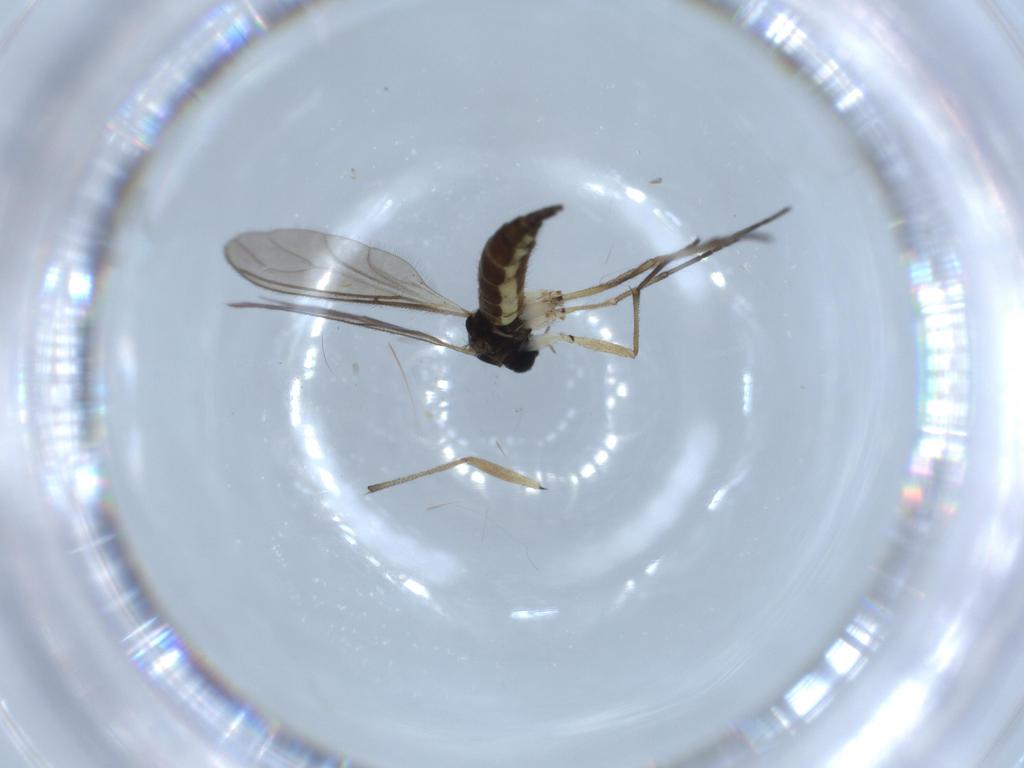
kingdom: Animalia
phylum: Arthropoda
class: Insecta
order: Diptera
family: Sciaridae
